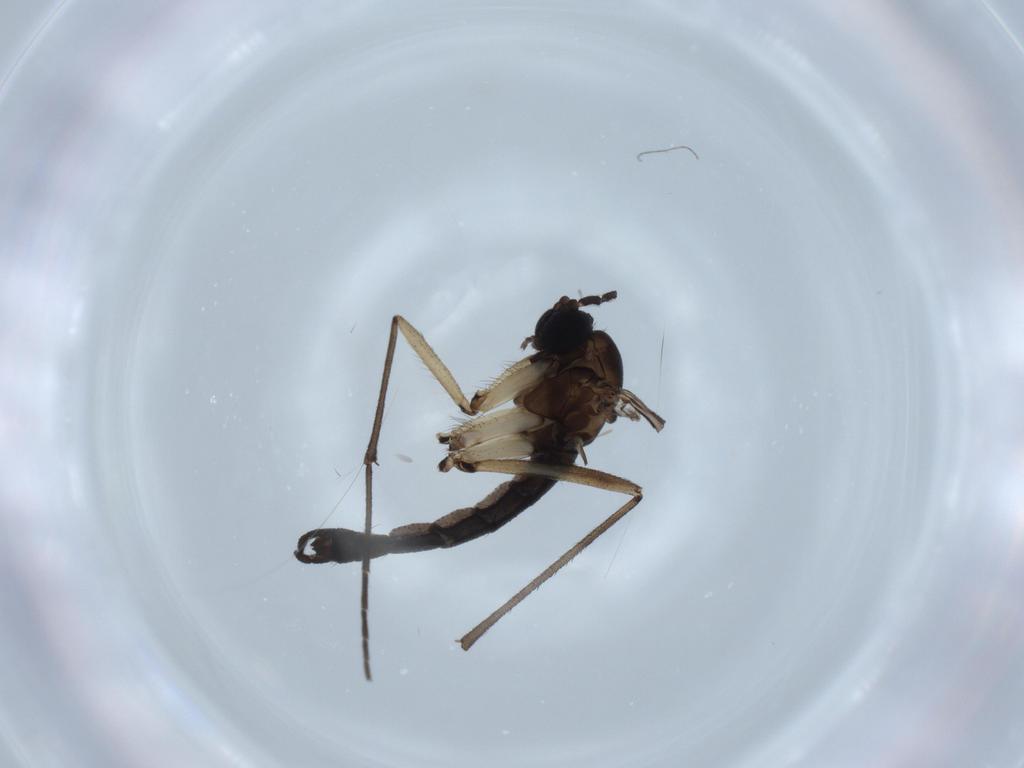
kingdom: Animalia
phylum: Arthropoda
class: Insecta
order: Diptera
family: Sciaridae
